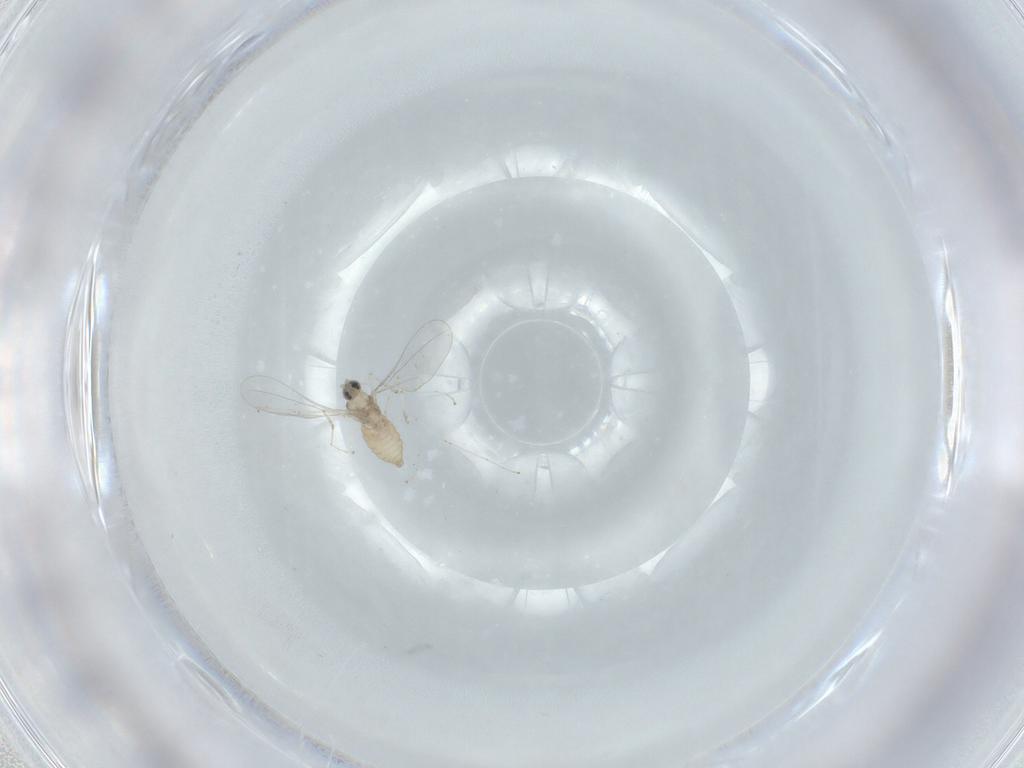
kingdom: Animalia
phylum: Arthropoda
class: Insecta
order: Diptera
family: Cecidomyiidae
